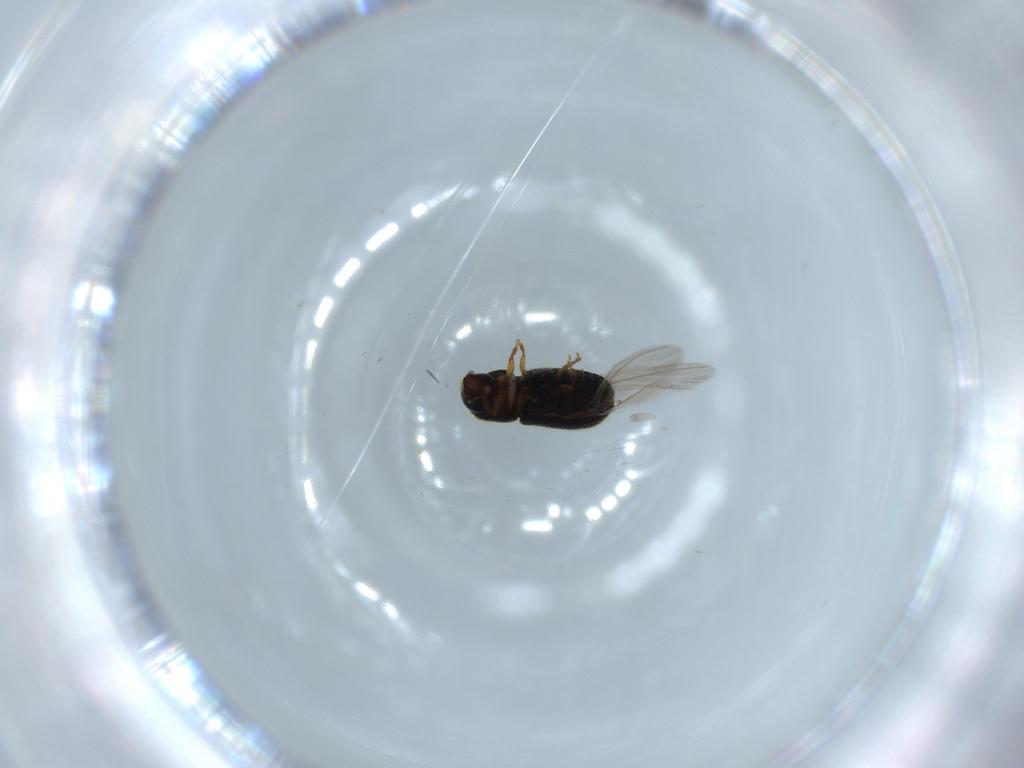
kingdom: Animalia
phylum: Arthropoda
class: Insecta
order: Coleoptera
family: Curculionidae
